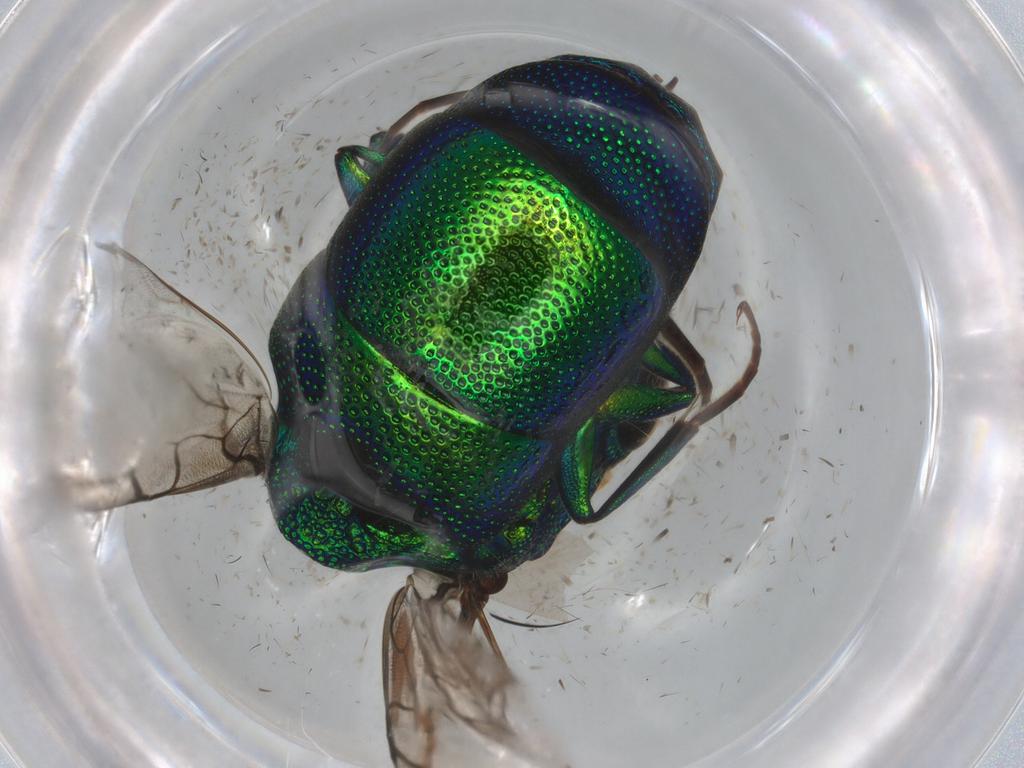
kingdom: Animalia
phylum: Arthropoda
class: Insecta
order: Hymenoptera
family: Chrysididae
